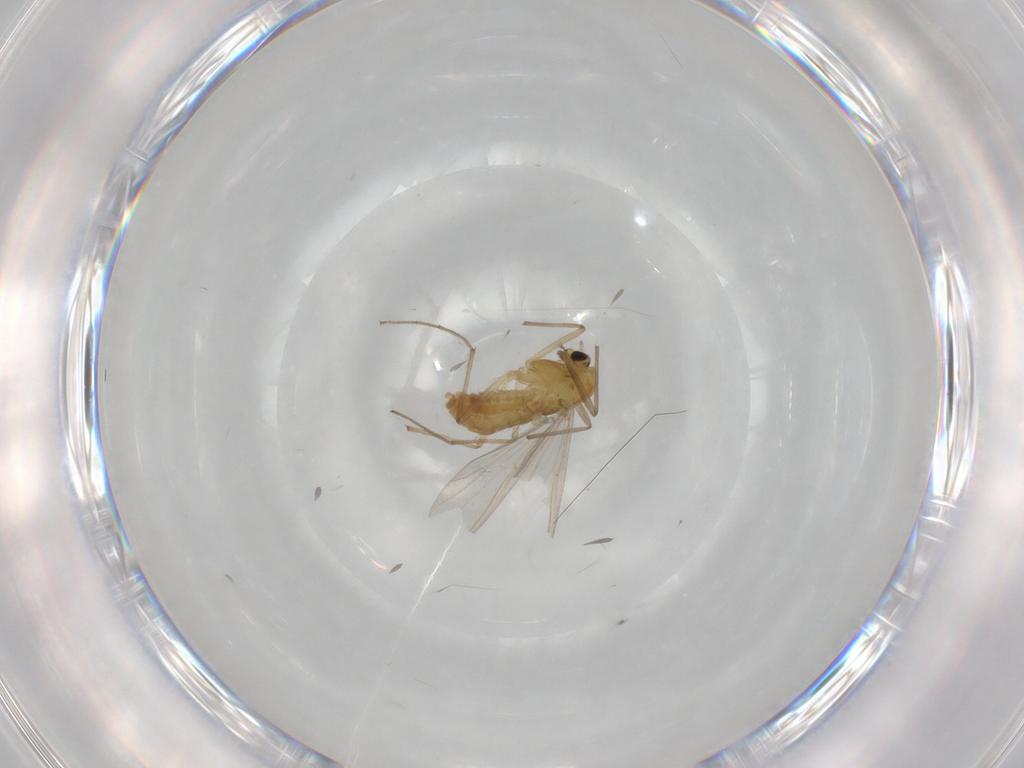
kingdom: Animalia
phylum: Arthropoda
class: Insecta
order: Diptera
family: Chironomidae
